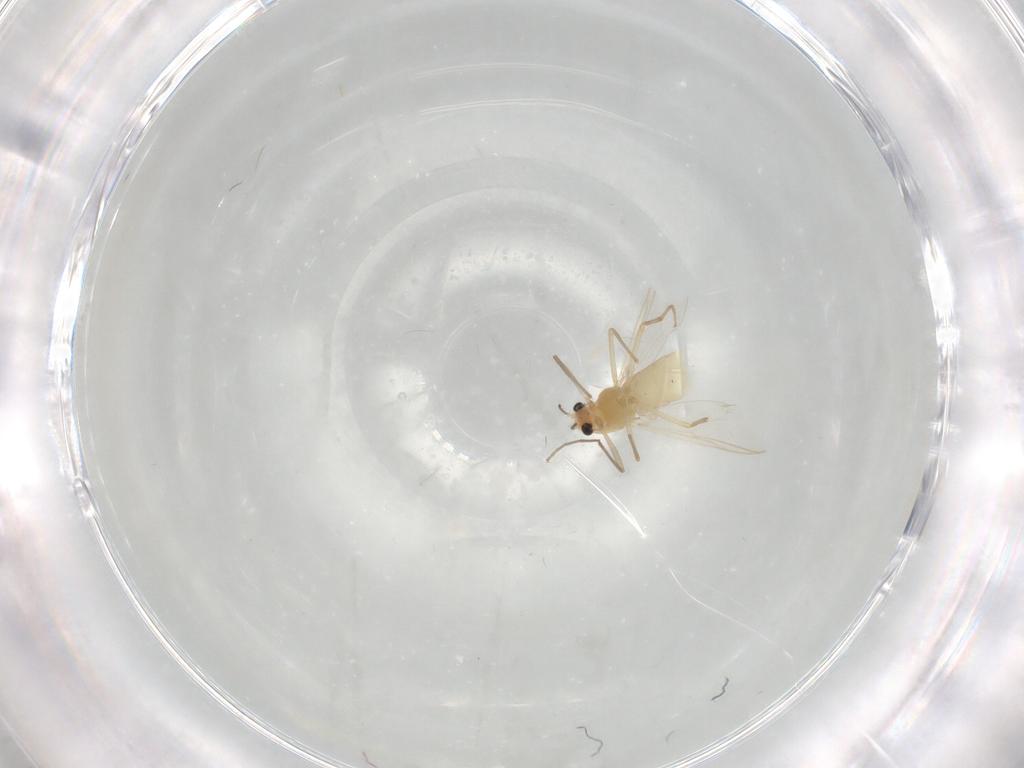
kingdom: Animalia
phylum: Arthropoda
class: Insecta
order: Diptera
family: Chironomidae
